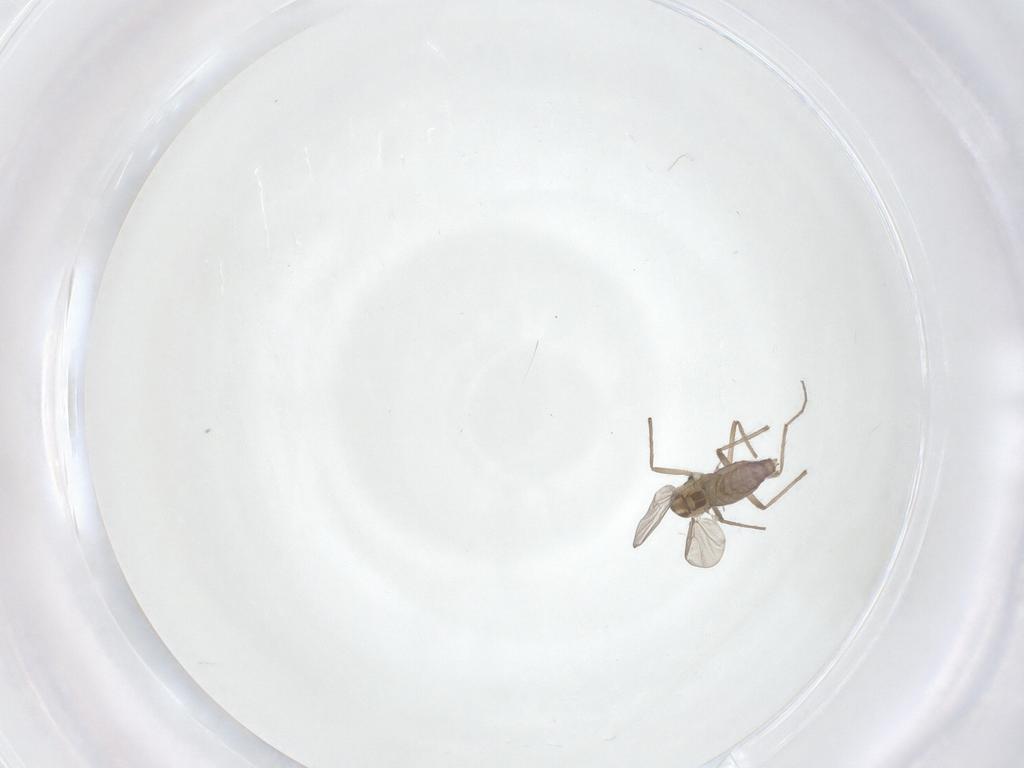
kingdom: Animalia
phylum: Arthropoda
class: Insecta
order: Diptera
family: Chironomidae
